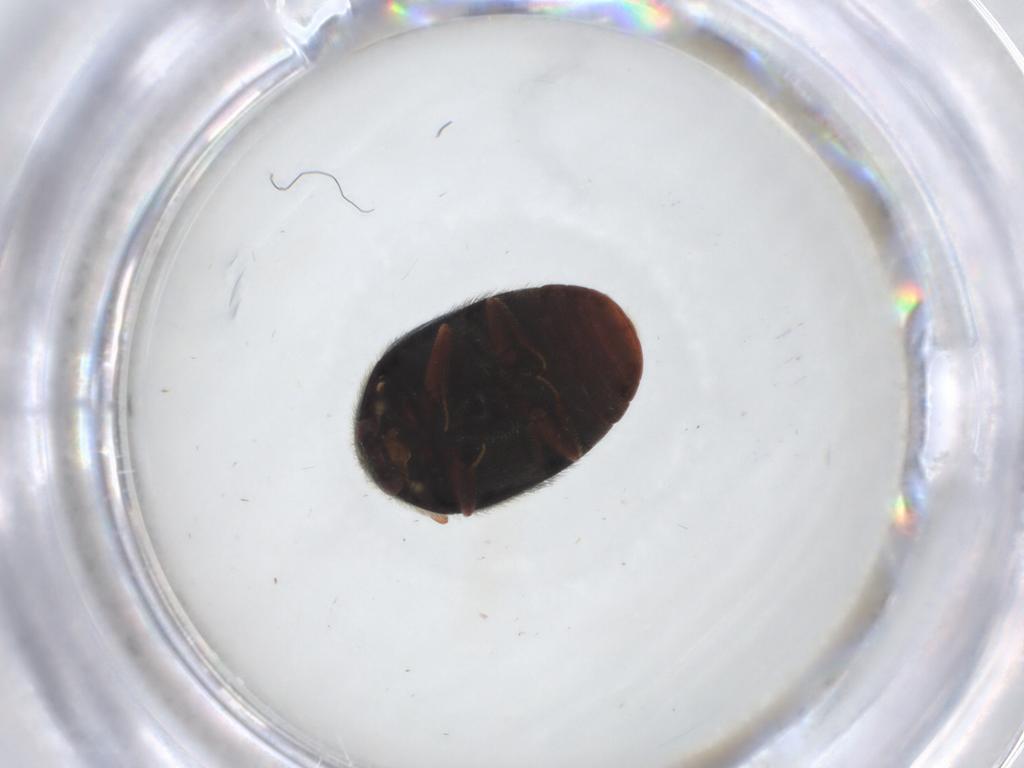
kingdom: Animalia
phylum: Arthropoda
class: Insecta
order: Coleoptera
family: Dermestidae
